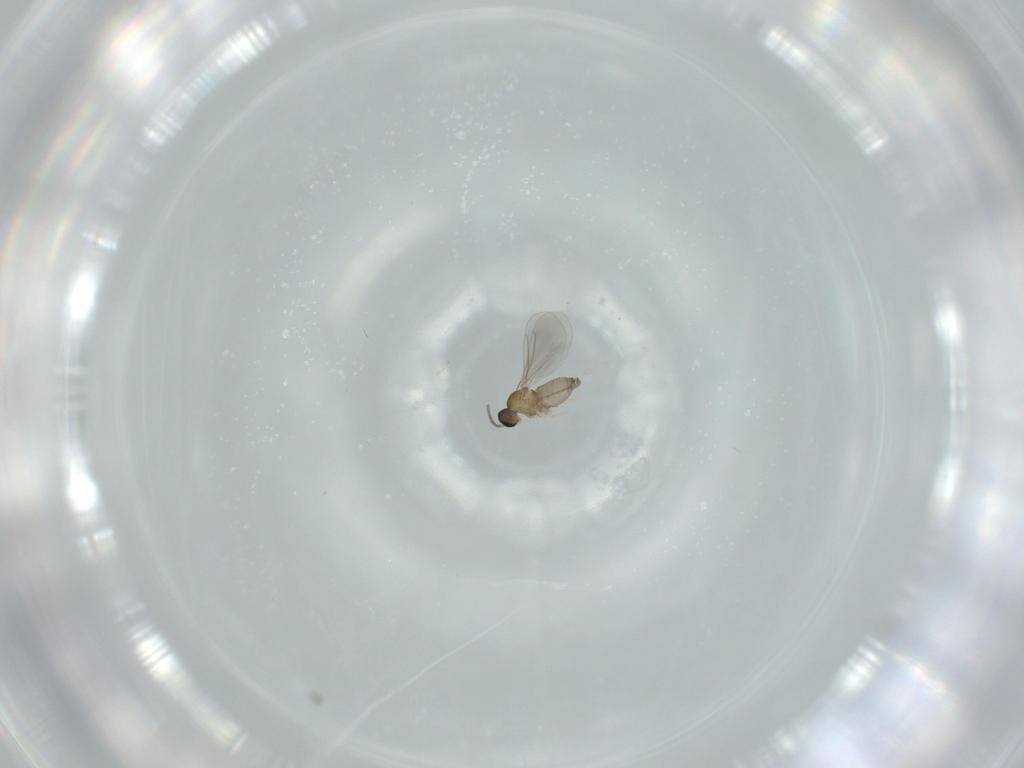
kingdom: Animalia
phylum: Arthropoda
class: Insecta
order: Diptera
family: Cecidomyiidae
